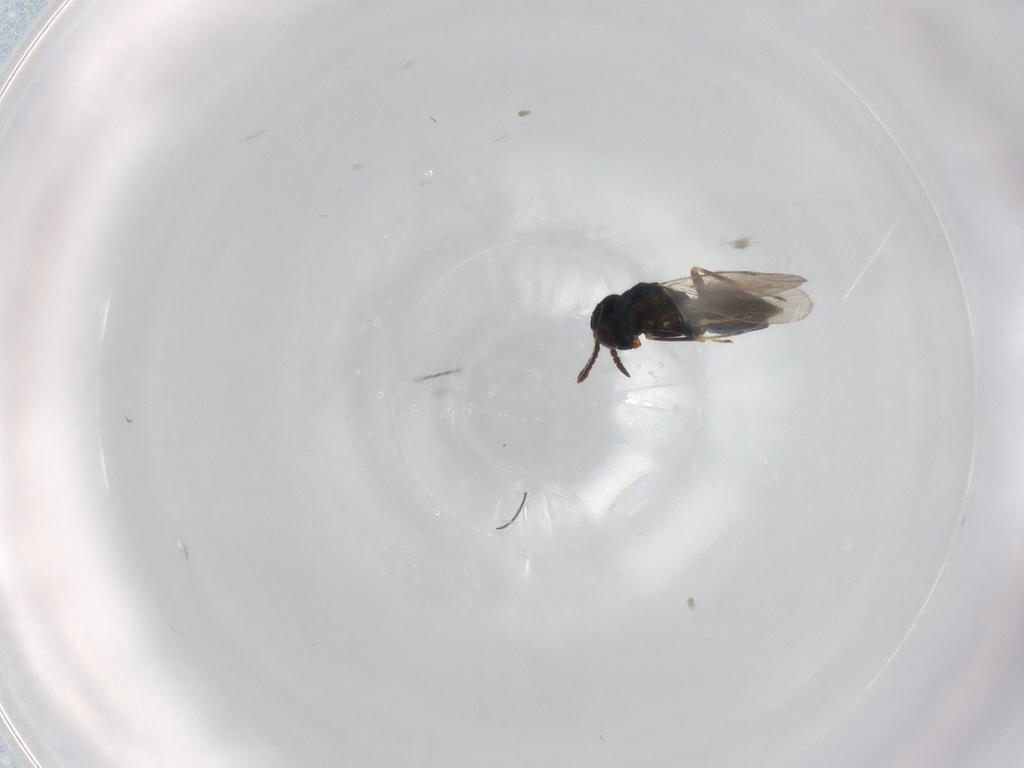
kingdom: Animalia
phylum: Arthropoda
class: Insecta
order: Hymenoptera
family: Pteromalidae
